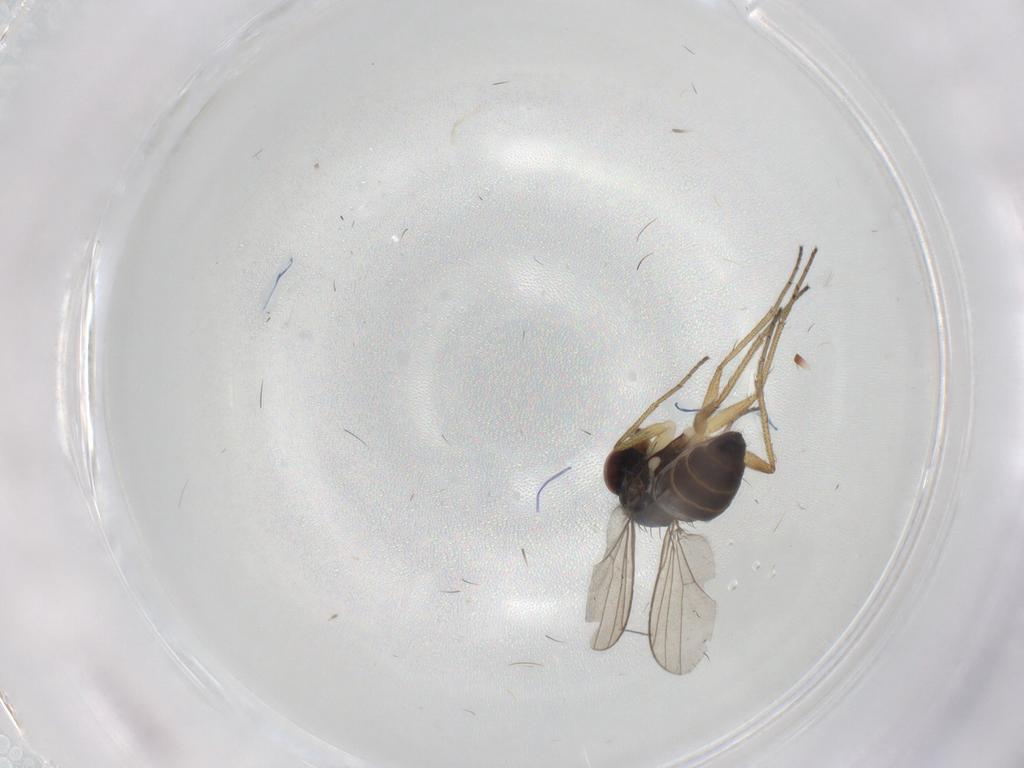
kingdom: Animalia
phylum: Arthropoda
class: Insecta
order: Diptera
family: Dolichopodidae
